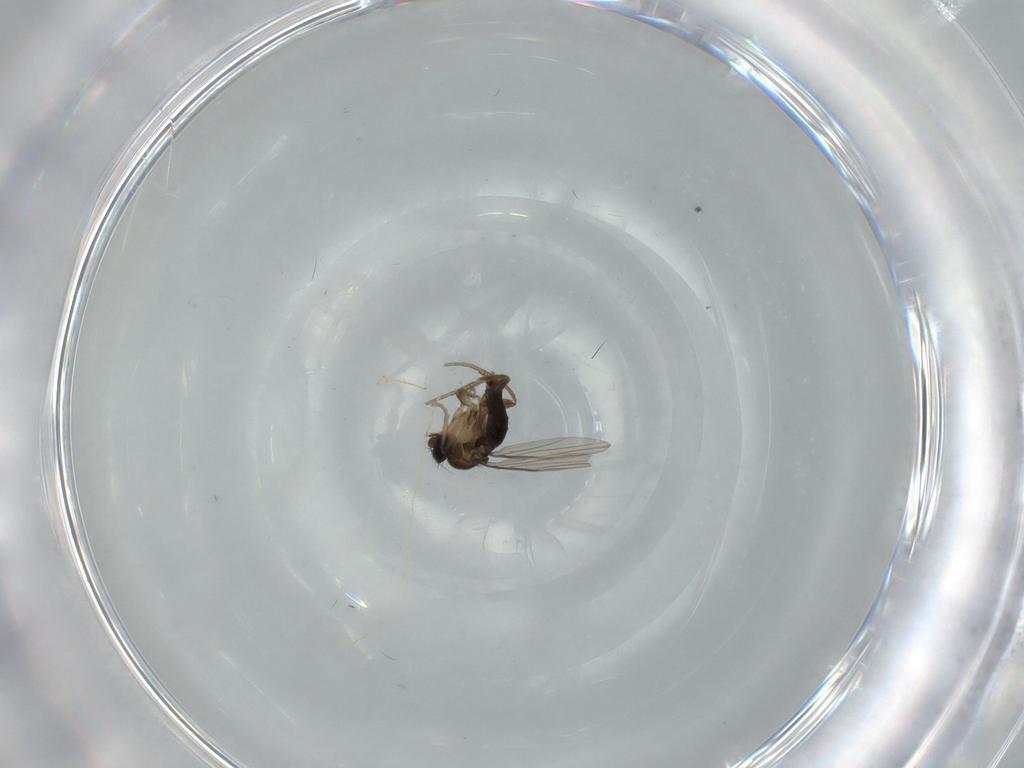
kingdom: Animalia
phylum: Arthropoda
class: Insecta
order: Diptera
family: Phoridae
